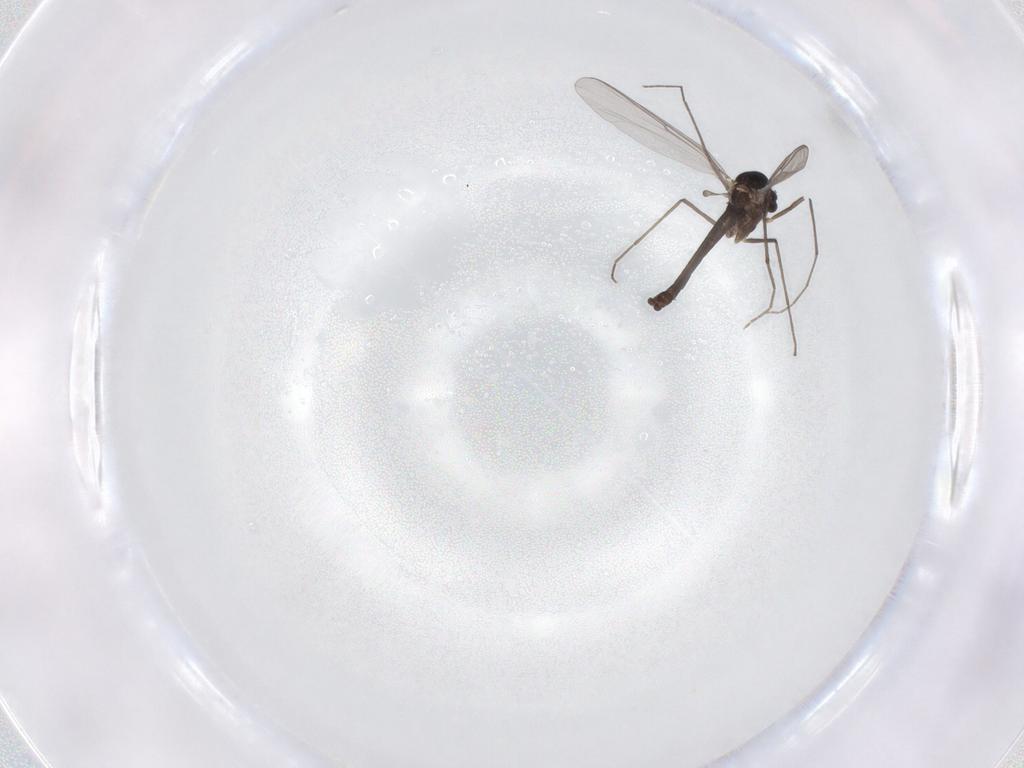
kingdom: Animalia
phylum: Arthropoda
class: Insecta
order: Diptera
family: Chironomidae
